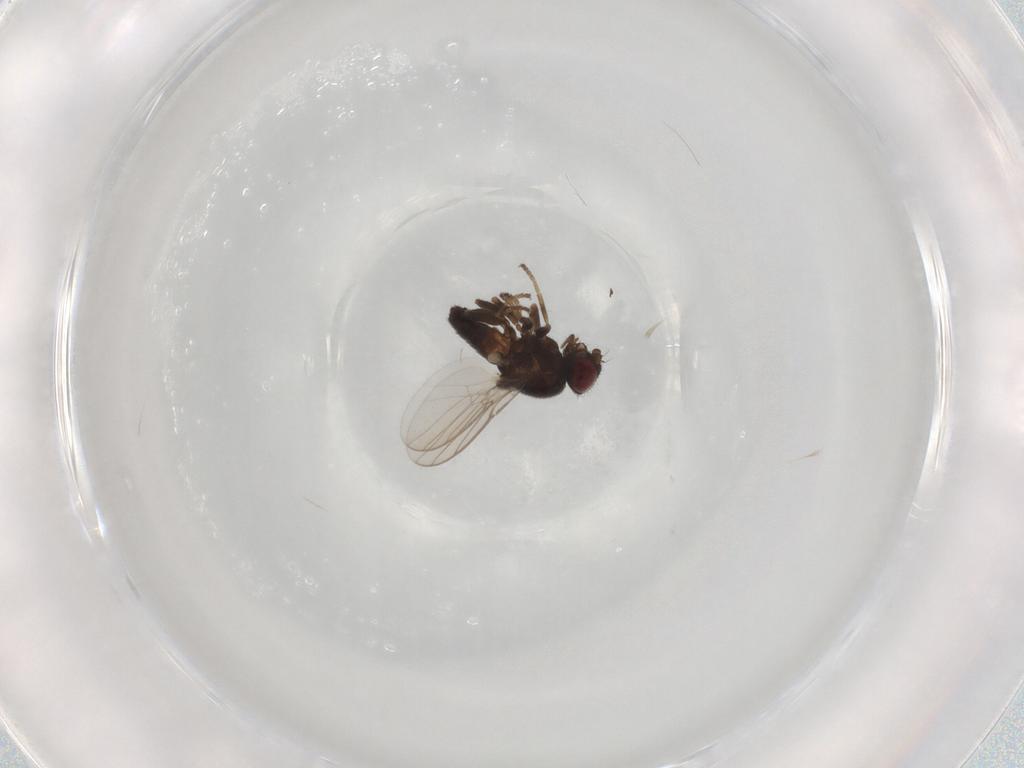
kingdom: Animalia
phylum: Arthropoda
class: Insecta
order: Diptera
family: Chloropidae
